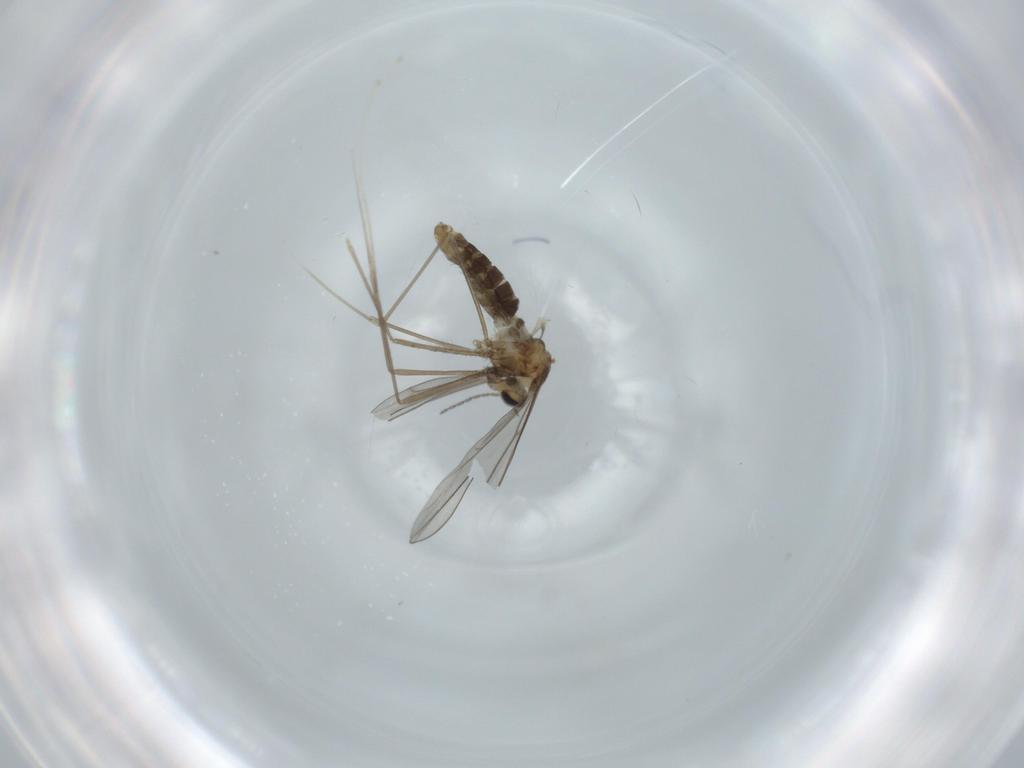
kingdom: Animalia
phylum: Arthropoda
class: Insecta
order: Diptera
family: Cecidomyiidae
